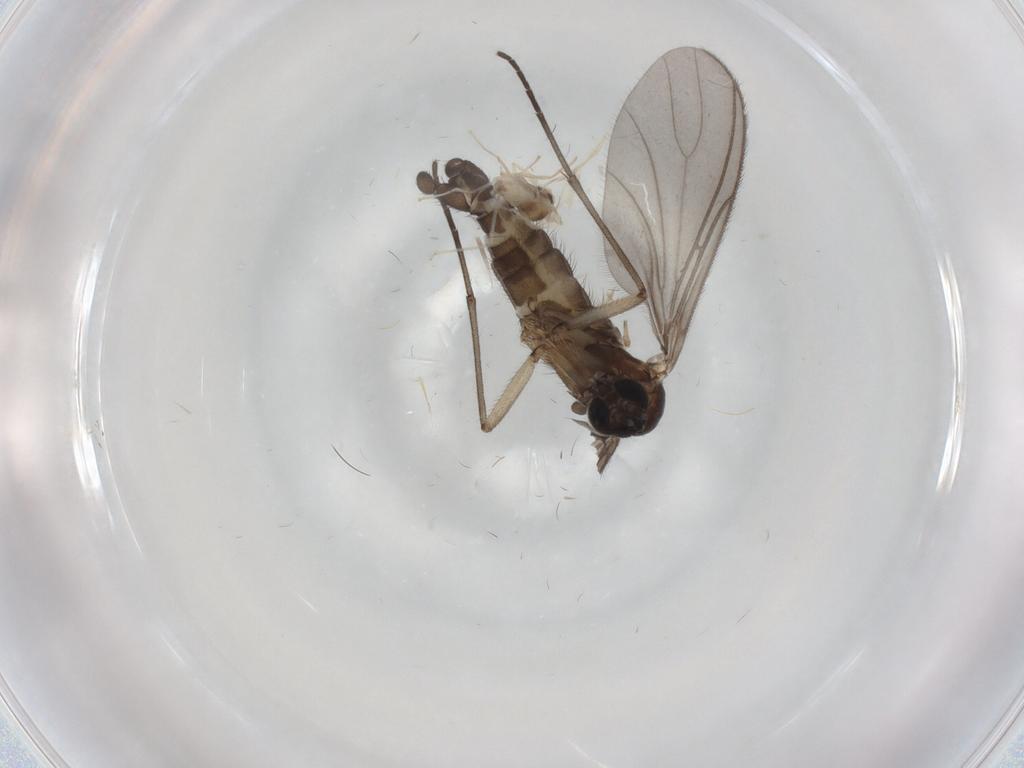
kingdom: Animalia
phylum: Arthropoda
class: Insecta
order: Diptera
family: Sciaridae
